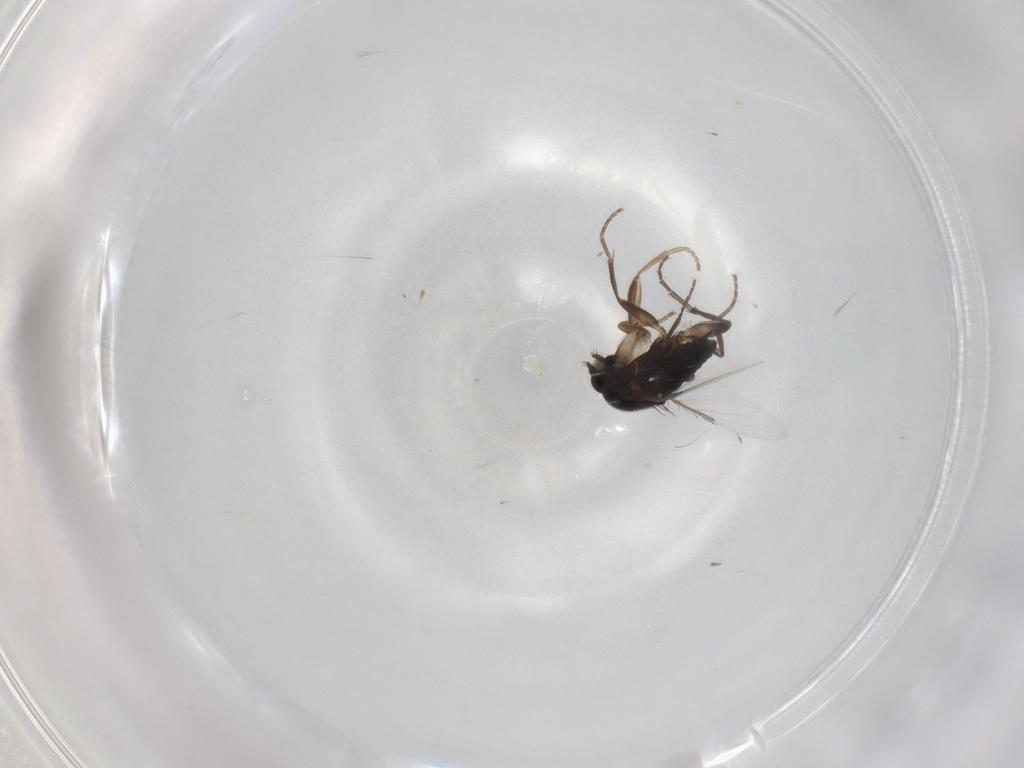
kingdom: Animalia
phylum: Arthropoda
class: Insecta
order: Diptera
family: Phoridae
